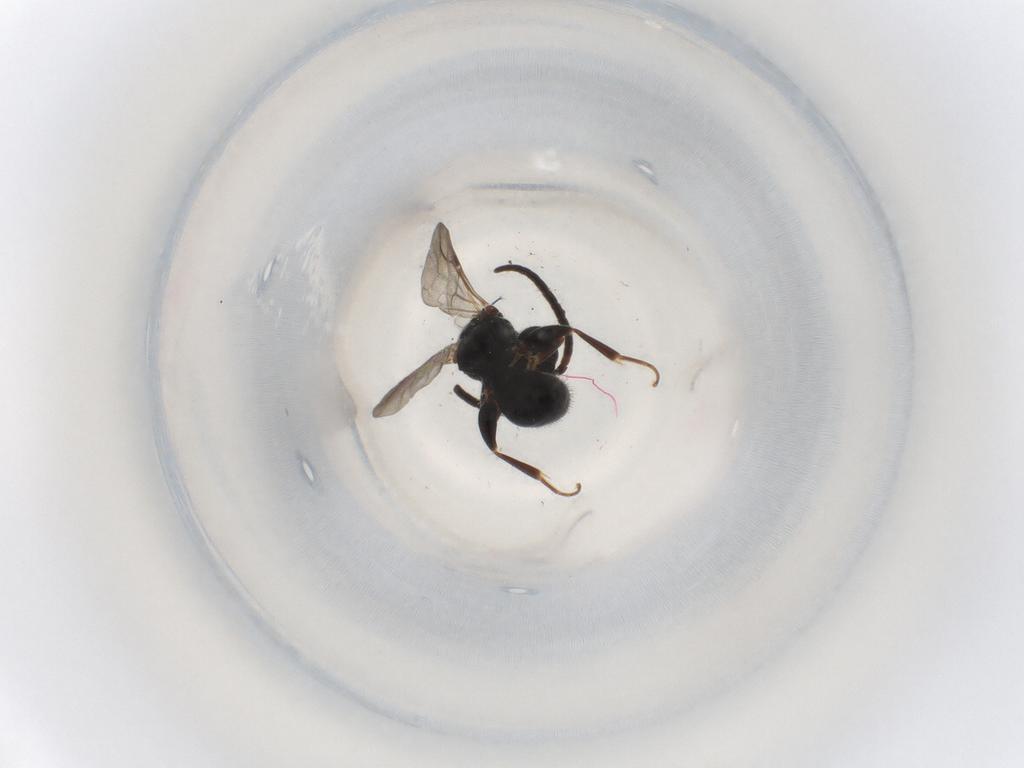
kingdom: Animalia
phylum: Arthropoda
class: Insecta
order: Hymenoptera
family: Bethylidae
